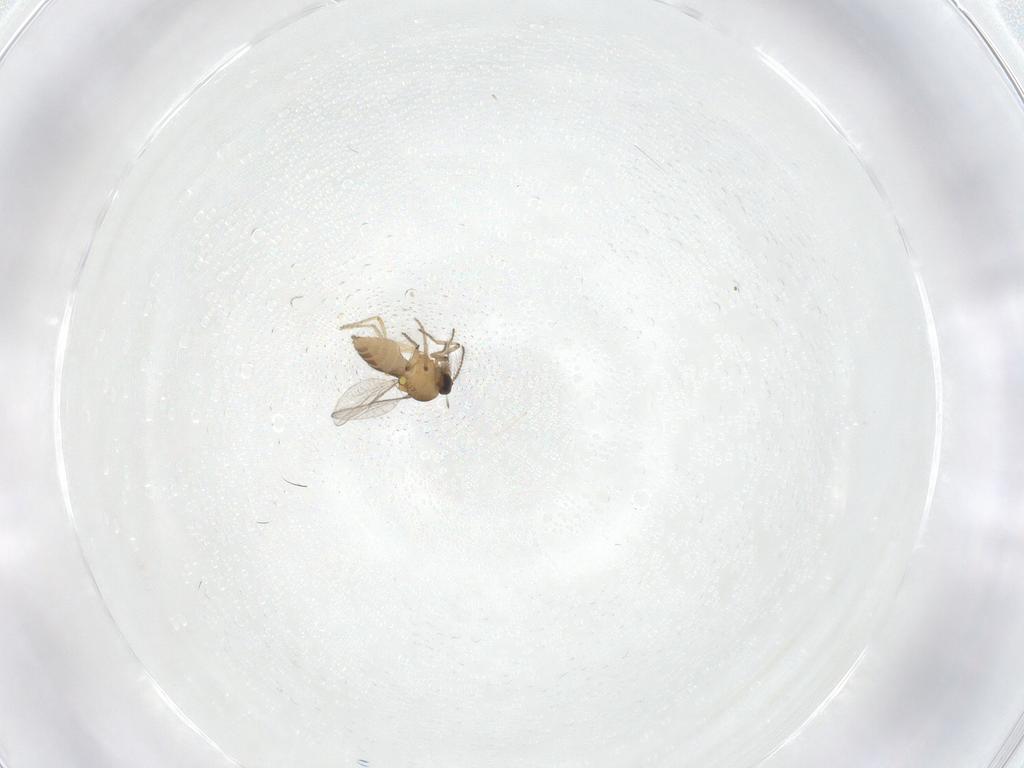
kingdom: Animalia
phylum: Arthropoda
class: Insecta
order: Diptera
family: Ceratopogonidae
